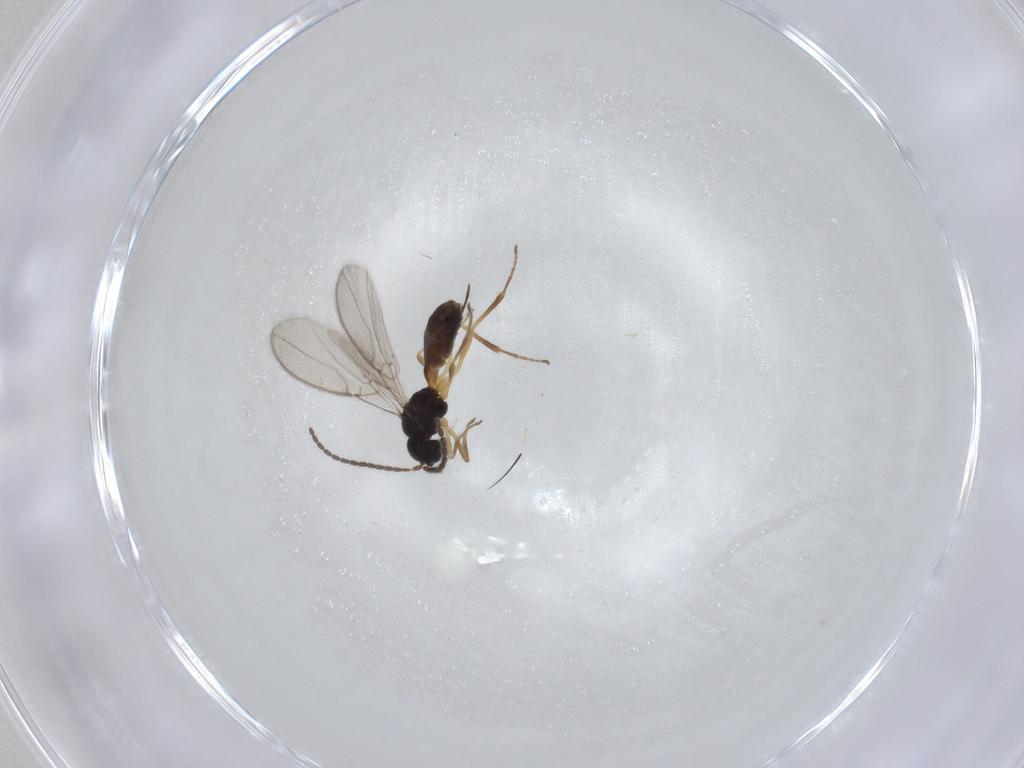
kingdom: Animalia
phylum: Arthropoda
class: Insecta
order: Hymenoptera
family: Braconidae
